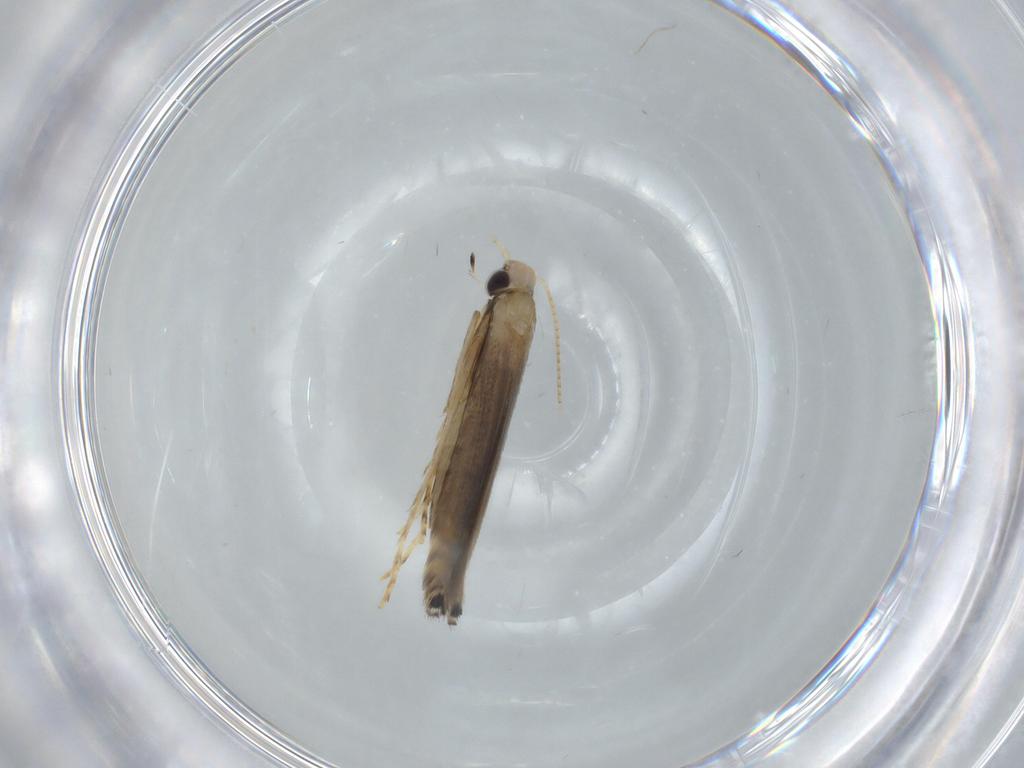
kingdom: Animalia
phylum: Arthropoda
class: Insecta
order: Lepidoptera
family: Gracillariidae
